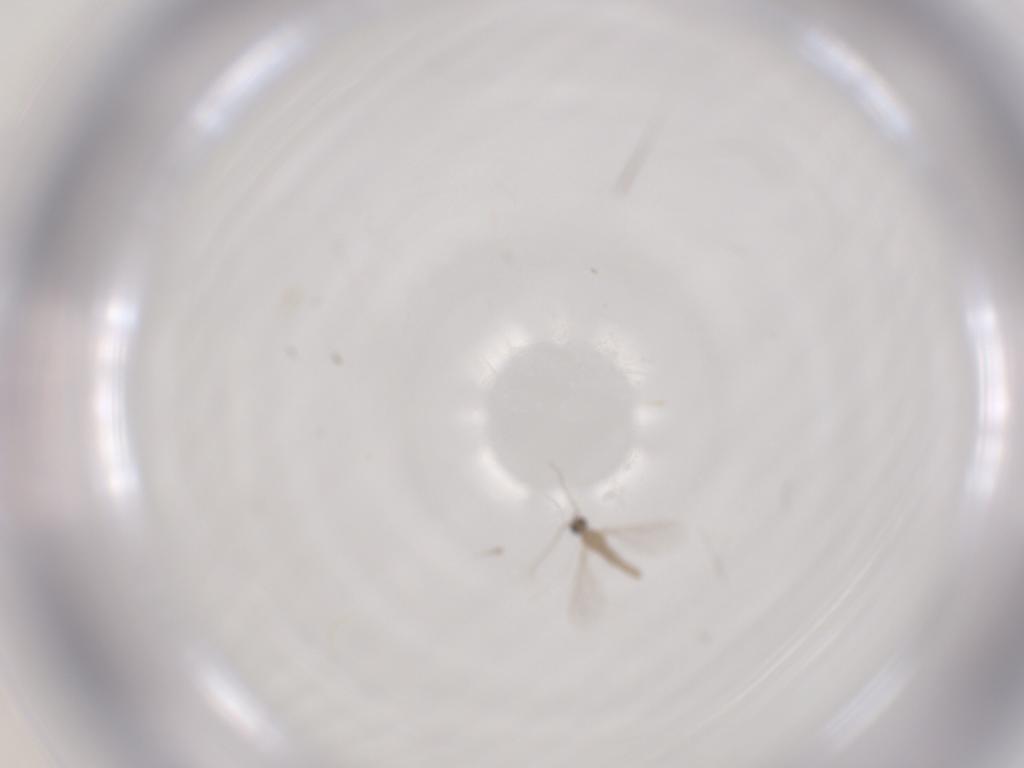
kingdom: Animalia
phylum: Arthropoda
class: Insecta
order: Diptera
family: Cecidomyiidae
